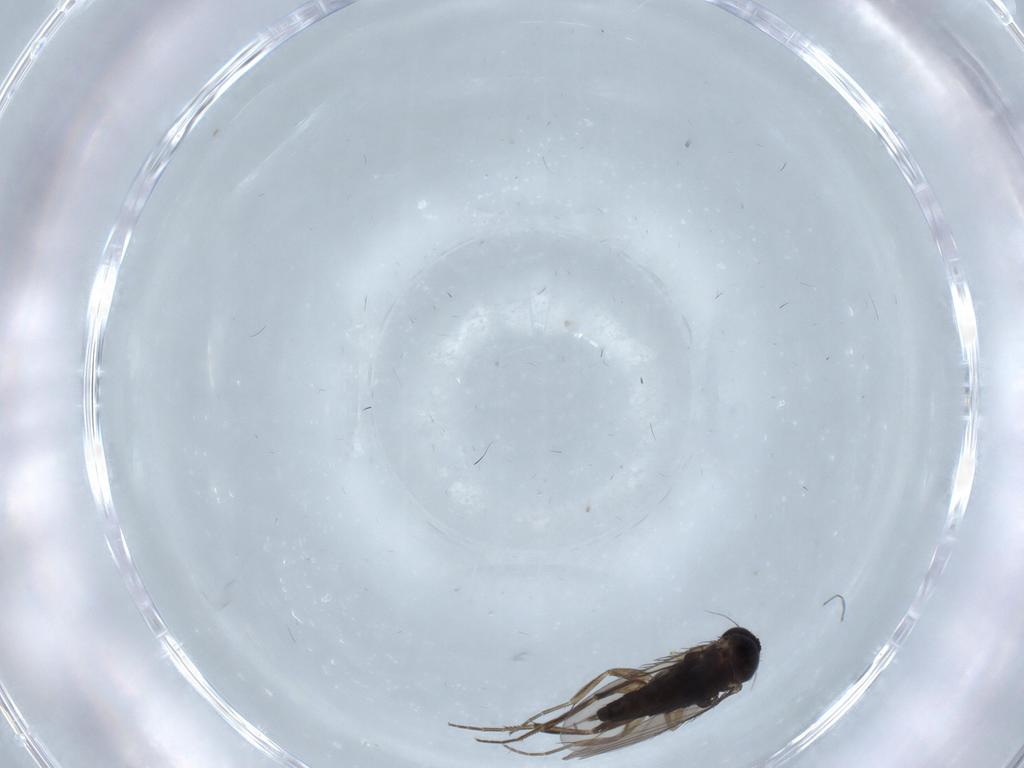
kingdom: Animalia
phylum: Arthropoda
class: Insecta
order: Diptera
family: Phoridae
